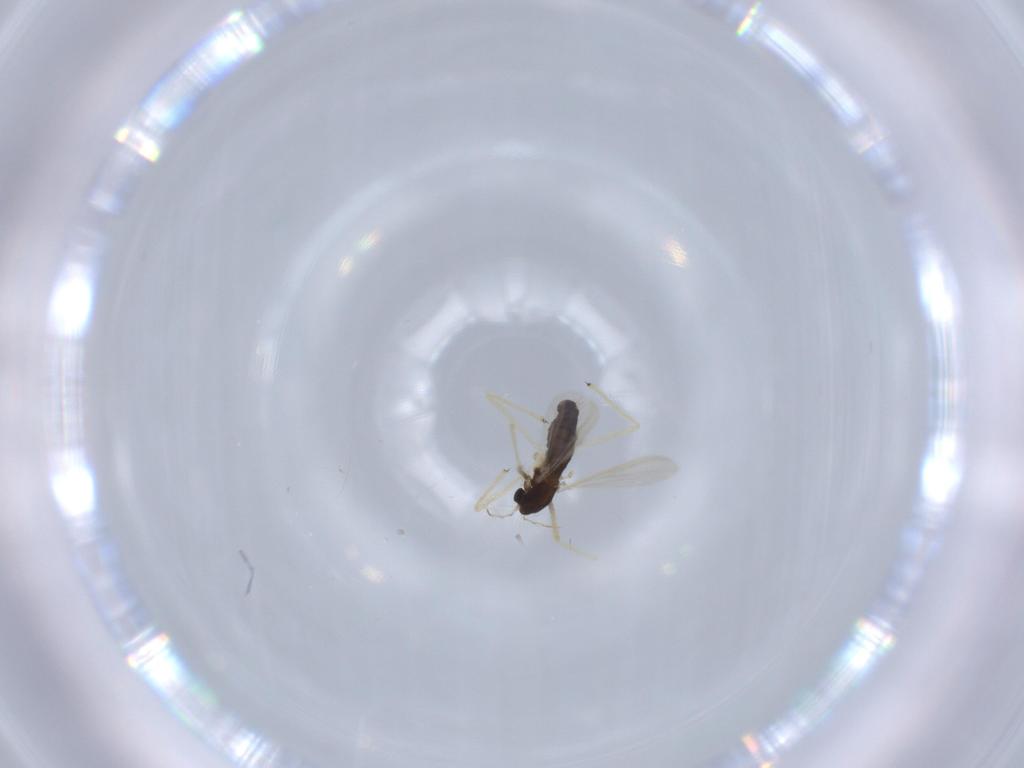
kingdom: Animalia
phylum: Arthropoda
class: Insecta
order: Diptera
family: Chironomidae
